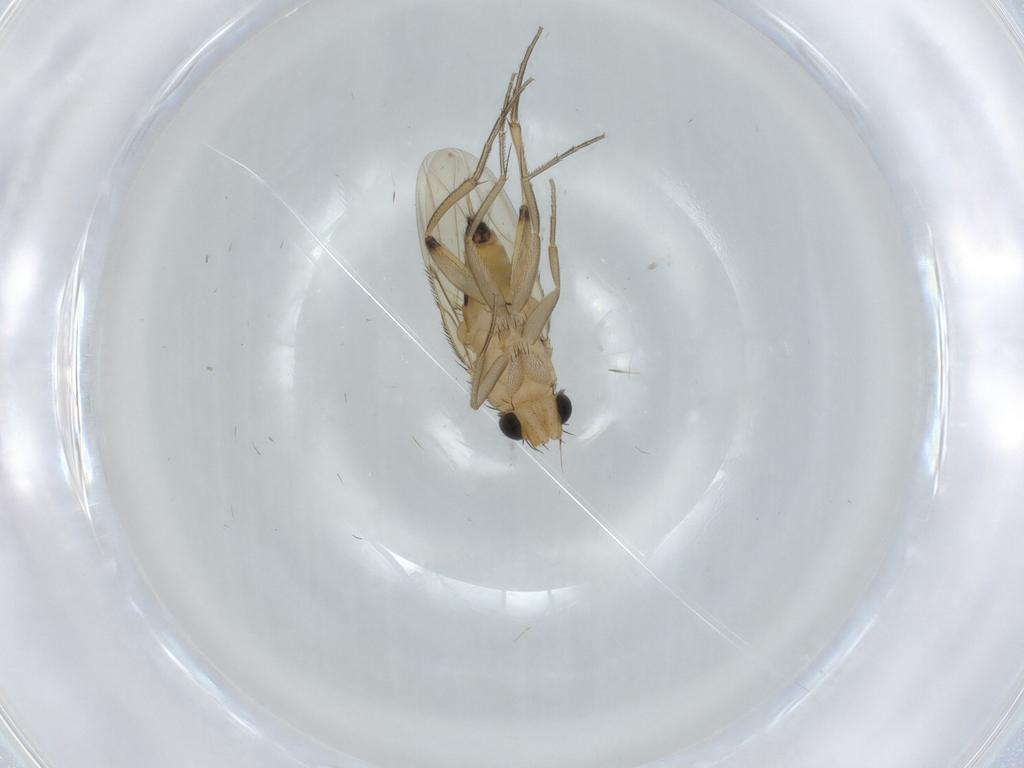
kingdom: Animalia
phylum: Arthropoda
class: Insecta
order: Diptera
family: Phoridae
